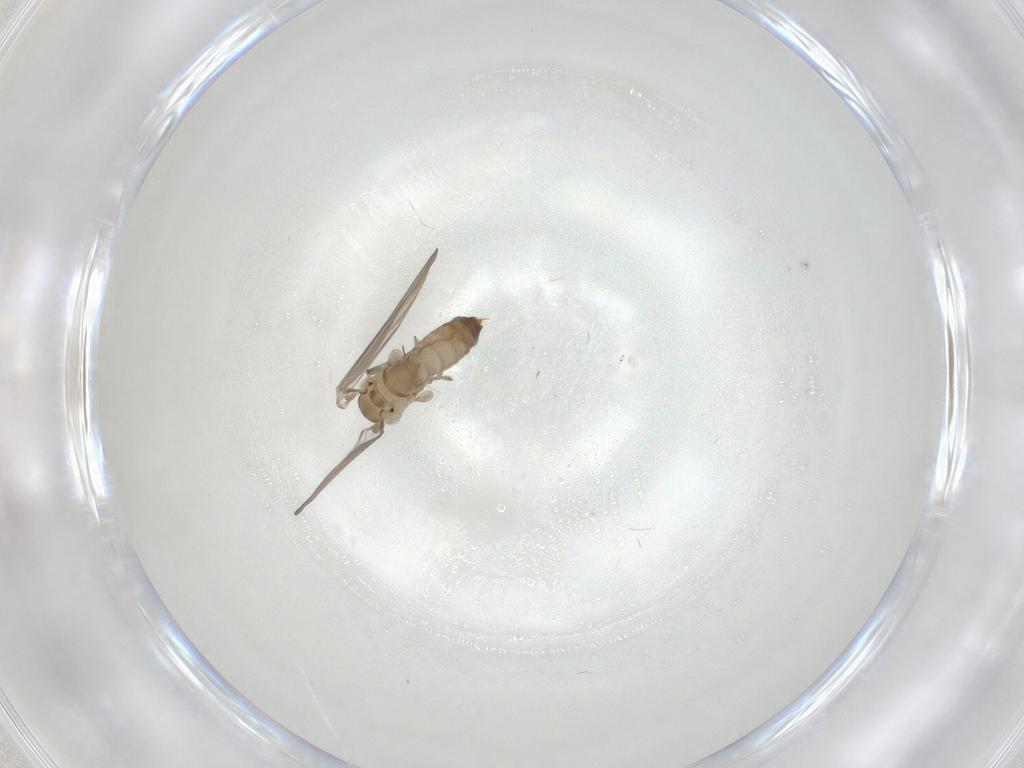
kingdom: Animalia
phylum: Arthropoda
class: Insecta
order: Diptera
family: Psychodidae
